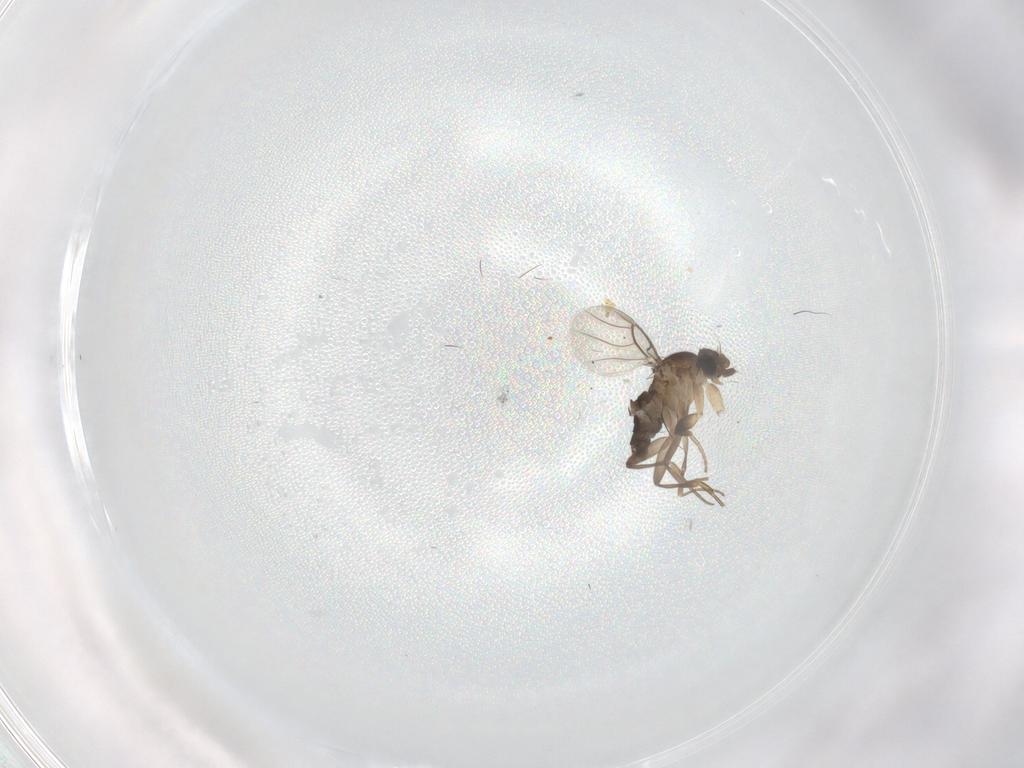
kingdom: Animalia
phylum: Arthropoda
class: Insecta
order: Diptera
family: Phoridae
